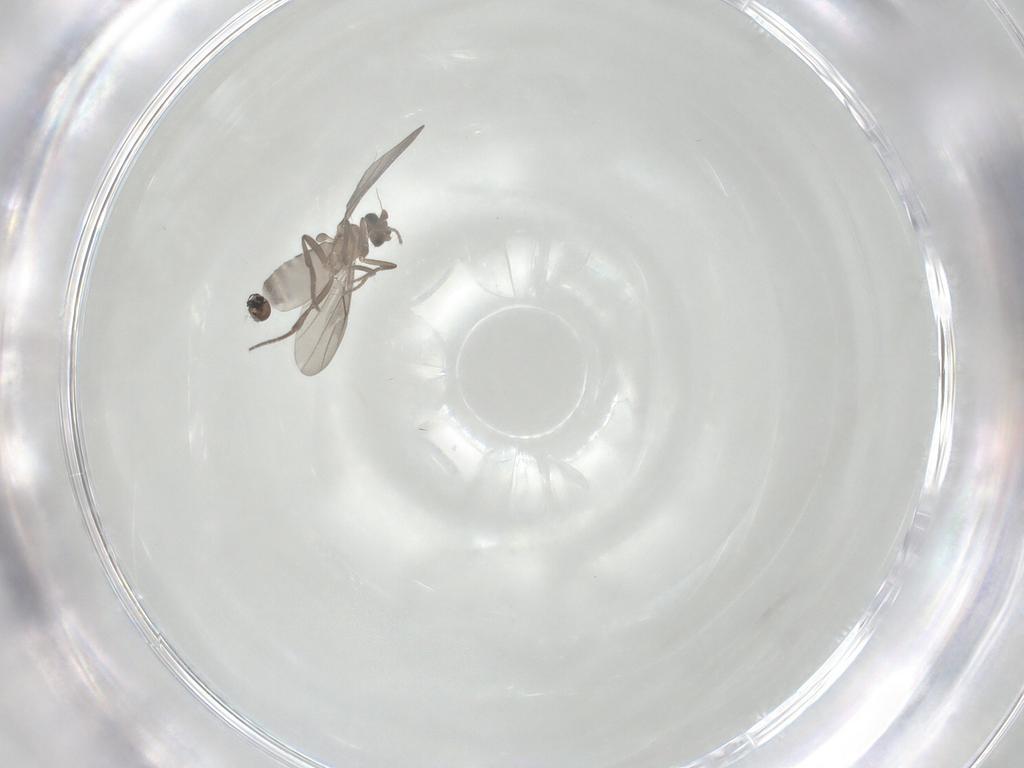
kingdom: Animalia
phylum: Arthropoda
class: Insecta
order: Diptera
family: Lauxaniidae
